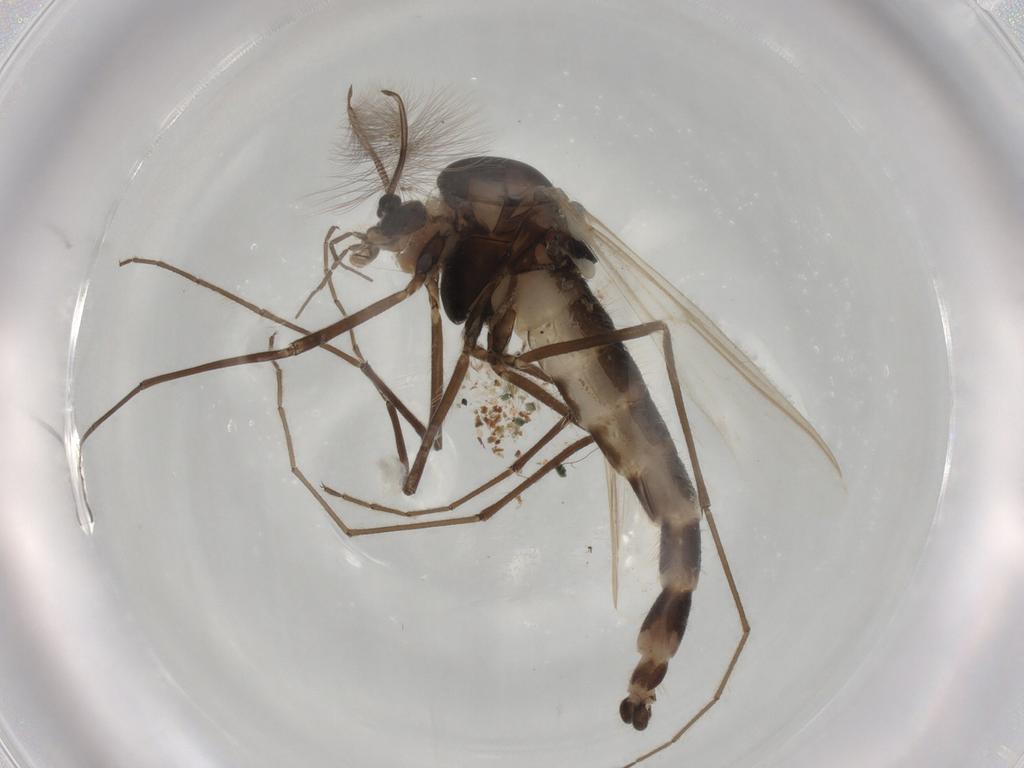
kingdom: Animalia
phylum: Arthropoda
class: Insecta
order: Diptera
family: Chironomidae
